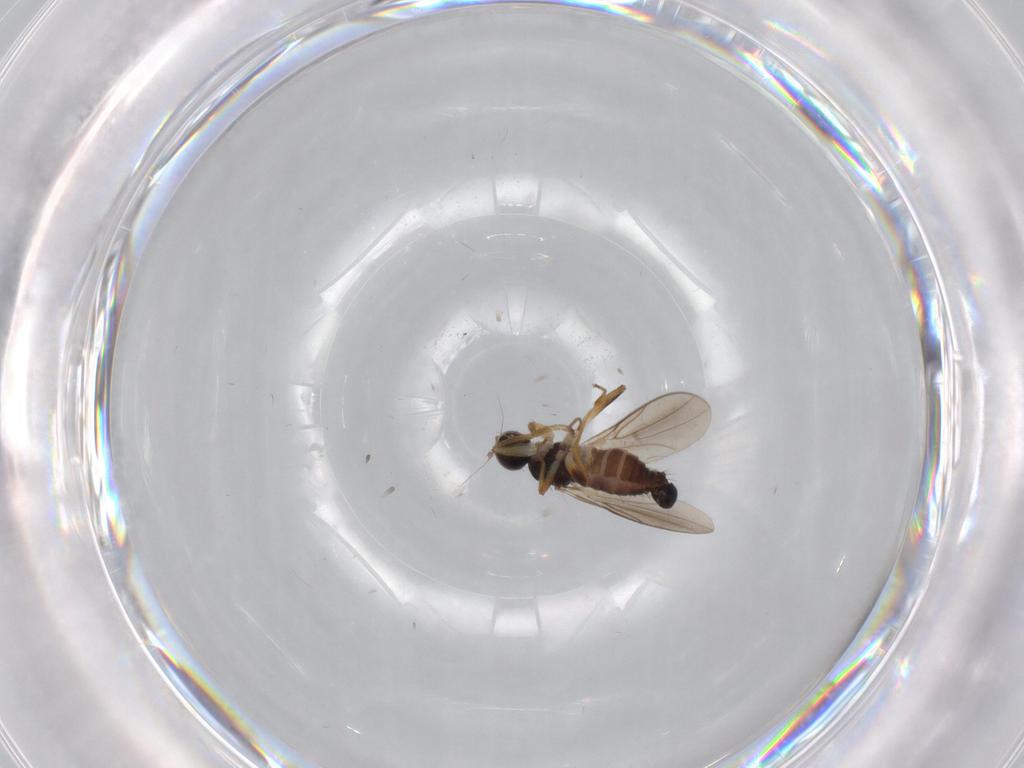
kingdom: Animalia
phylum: Arthropoda
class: Insecta
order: Diptera
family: Hybotidae
